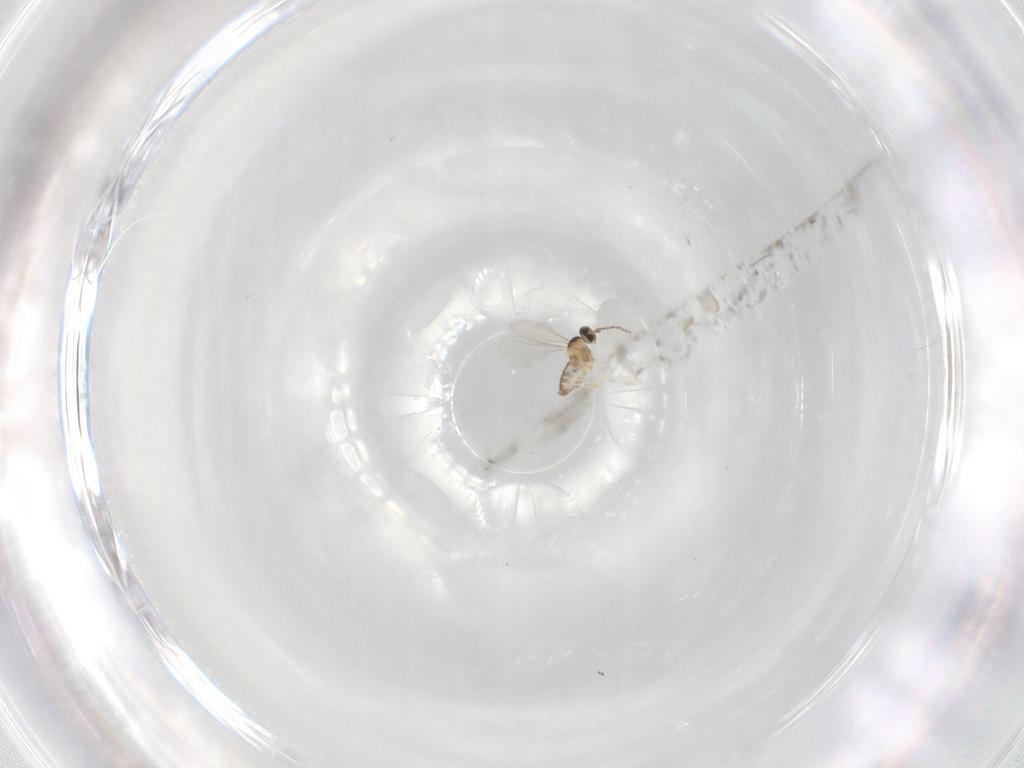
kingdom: Animalia
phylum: Arthropoda
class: Insecta
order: Diptera
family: Cecidomyiidae
